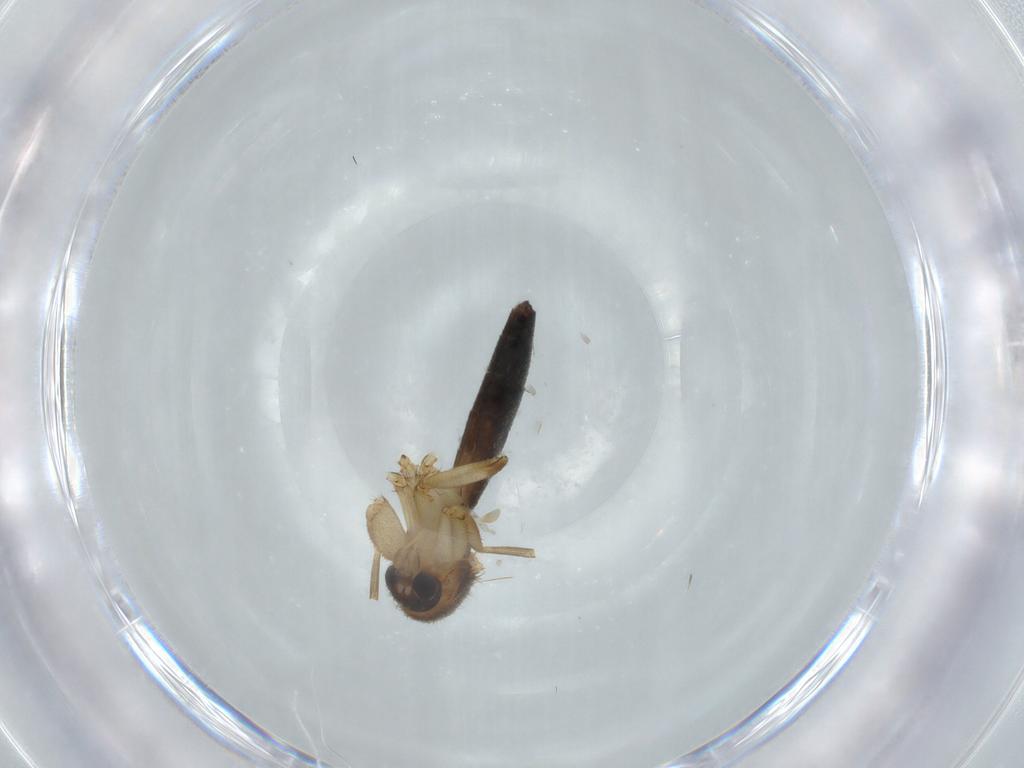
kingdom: Animalia
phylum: Arthropoda
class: Insecta
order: Diptera
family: Mycetophilidae
